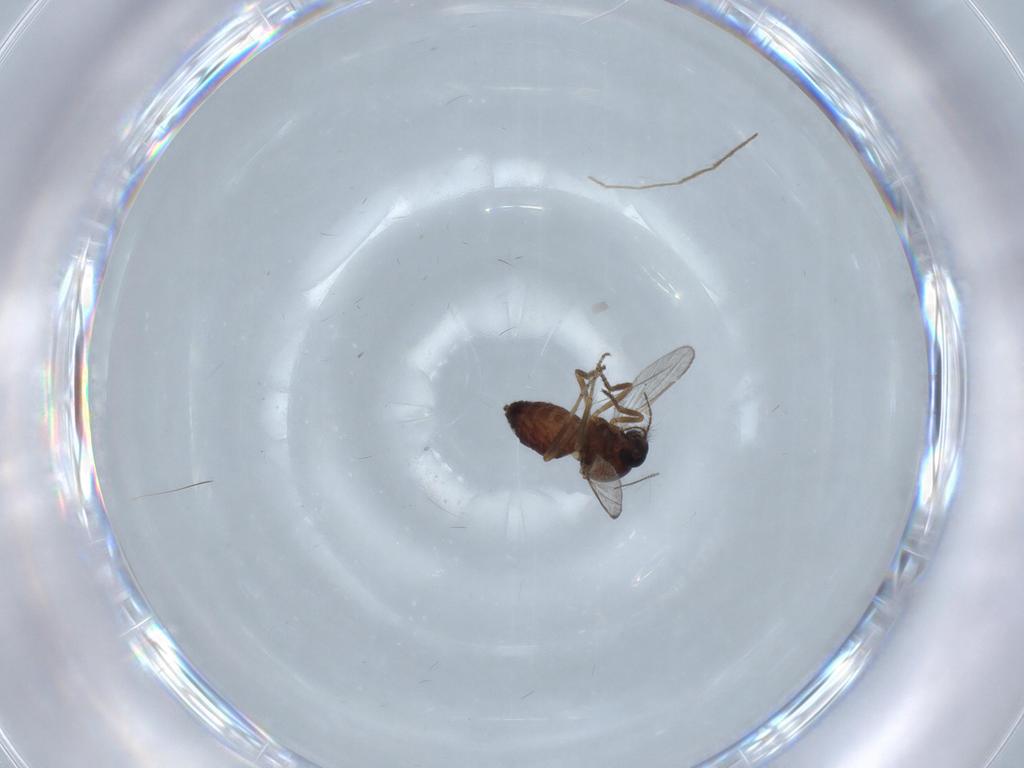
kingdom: Animalia
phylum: Arthropoda
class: Insecta
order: Diptera
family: Ceratopogonidae
